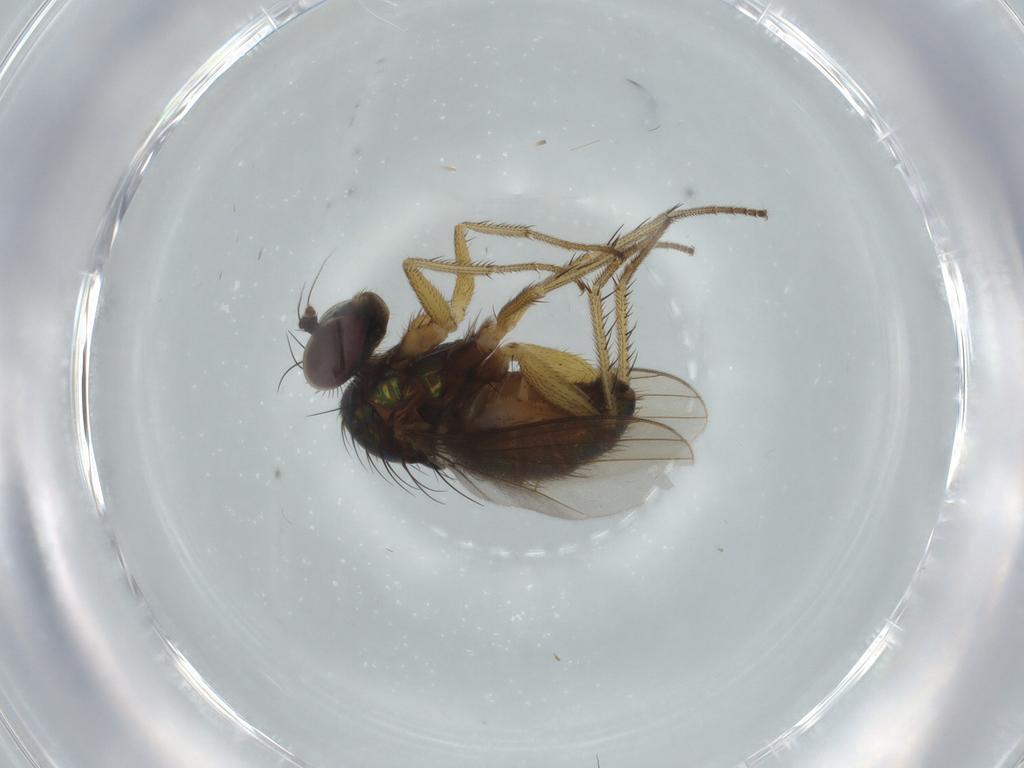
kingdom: Animalia
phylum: Arthropoda
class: Insecta
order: Diptera
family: Dolichopodidae
